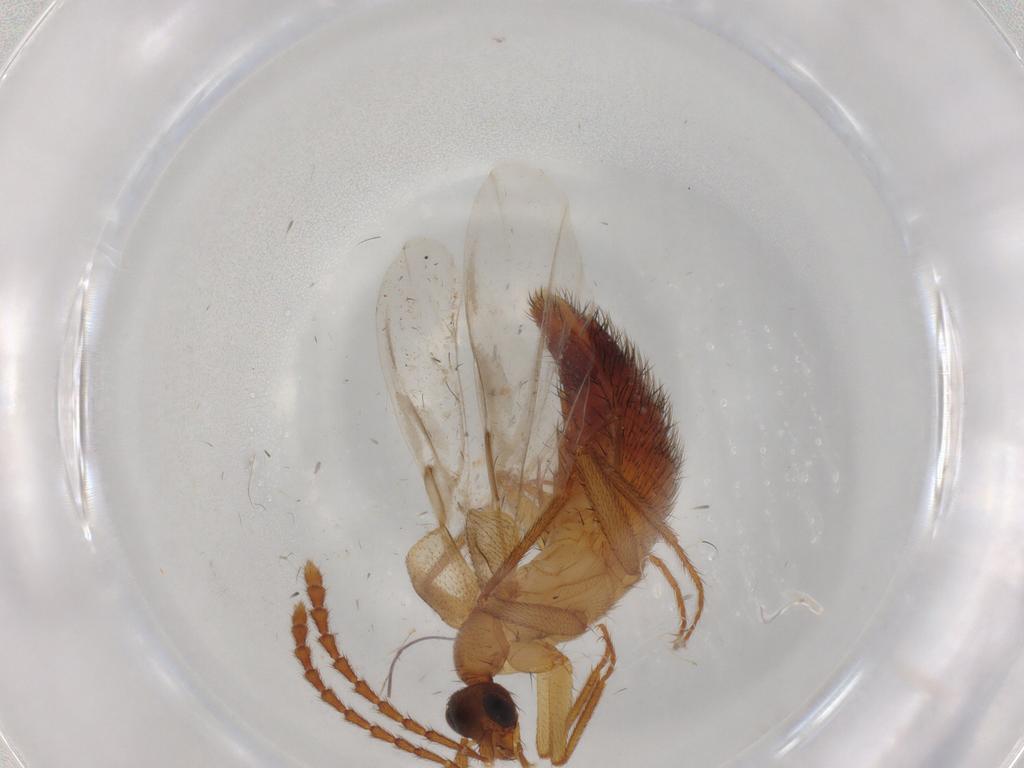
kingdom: Animalia
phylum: Arthropoda
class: Insecta
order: Coleoptera
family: Staphylinidae
